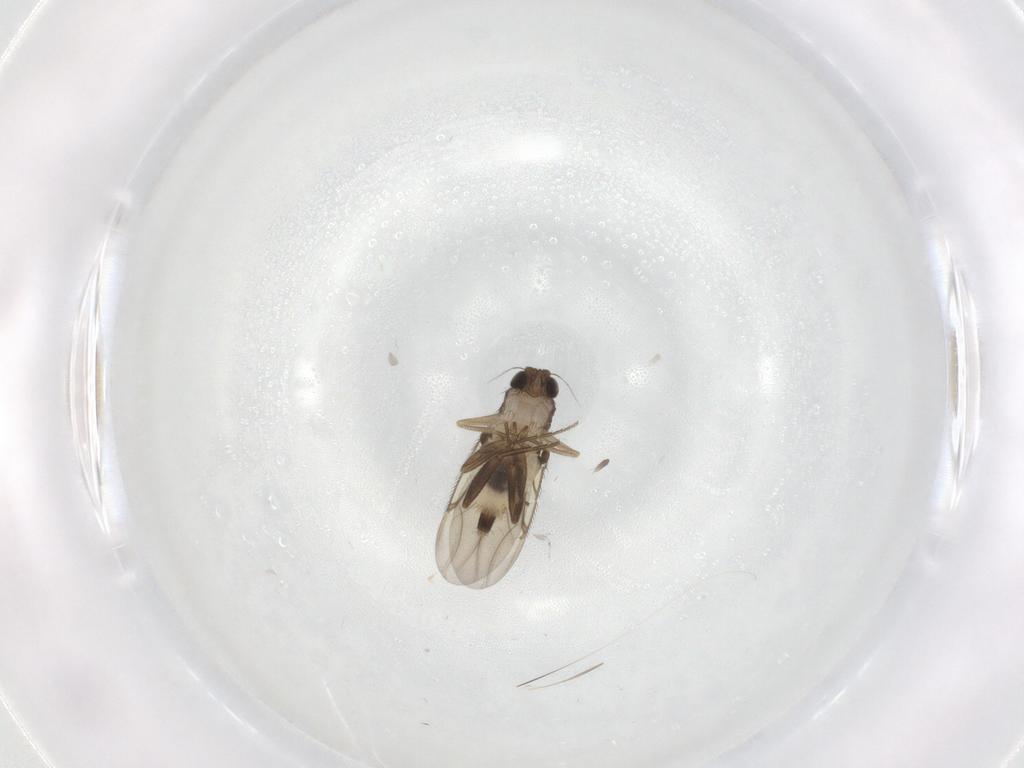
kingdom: Animalia
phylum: Arthropoda
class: Insecta
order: Diptera
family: Phoridae
